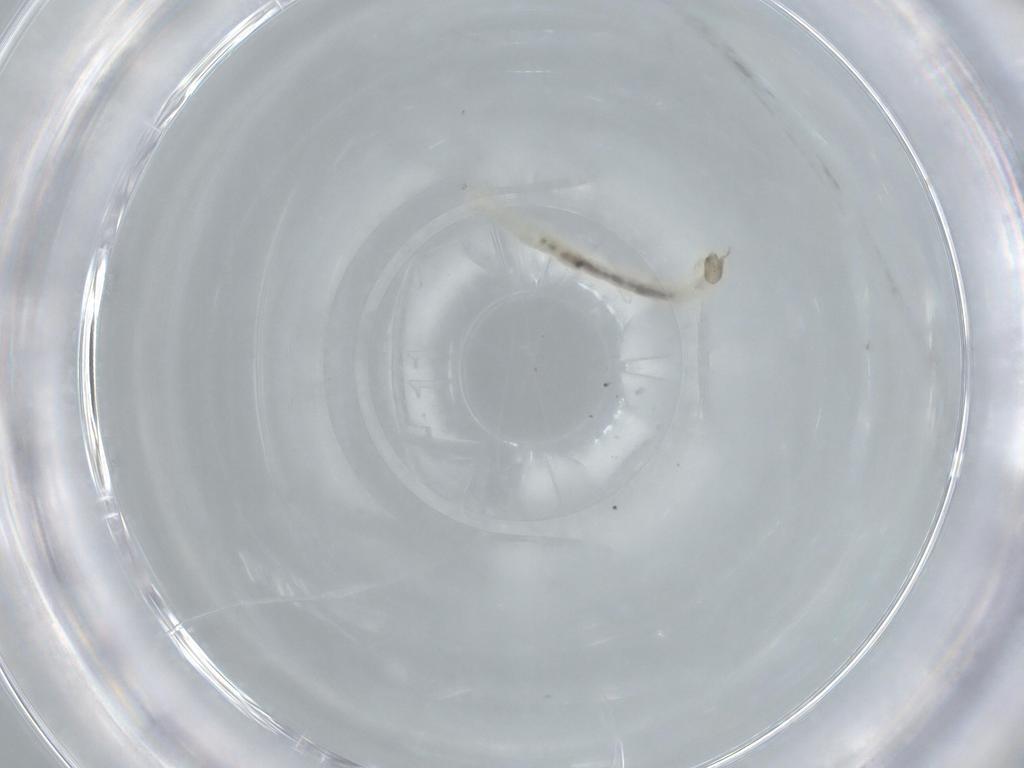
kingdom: Animalia
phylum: Arthropoda
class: Insecta
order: Diptera
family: Chironomidae
